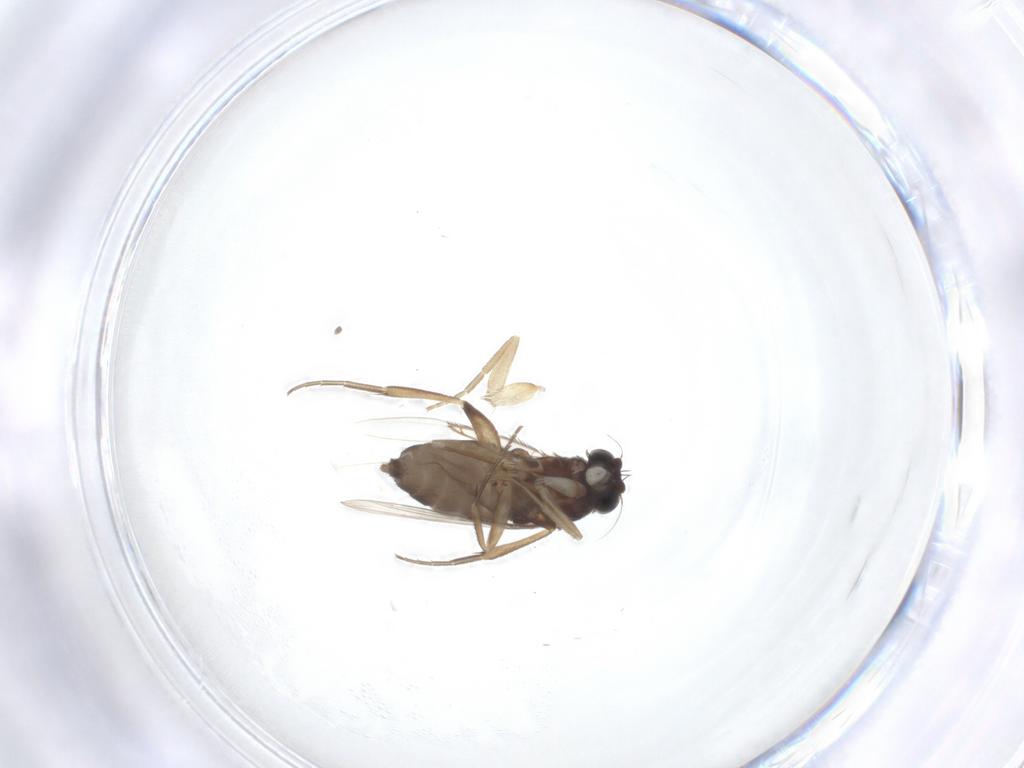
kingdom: Animalia
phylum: Arthropoda
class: Insecta
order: Diptera
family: Phoridae
